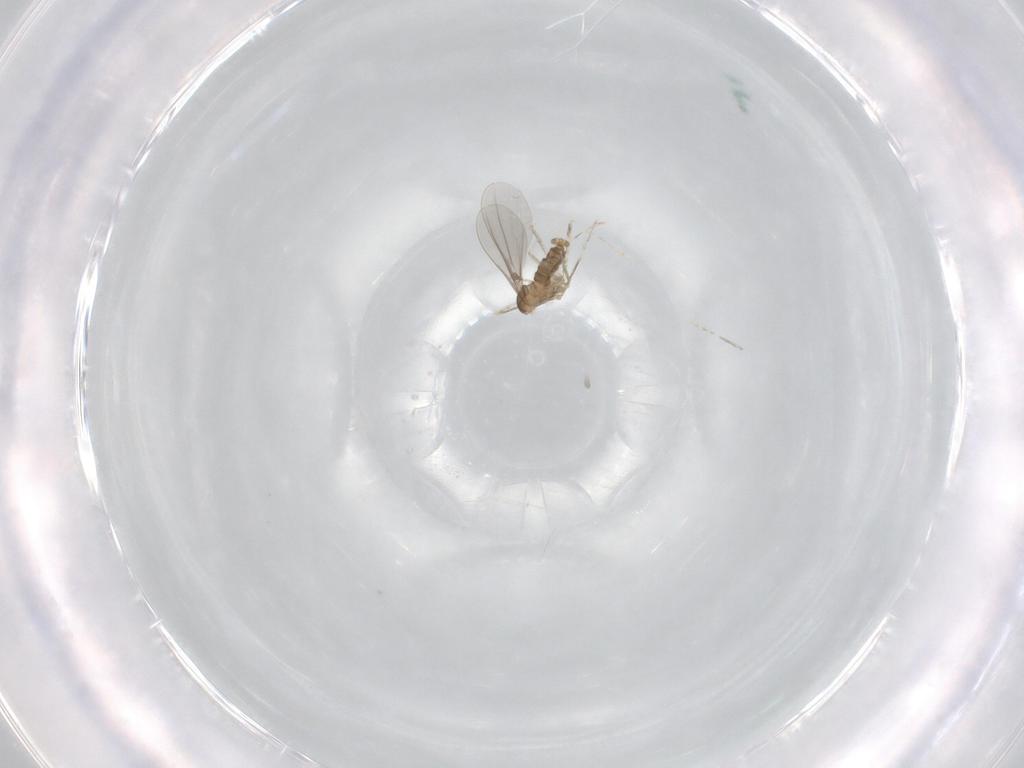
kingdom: Animalia
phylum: Arthropoda
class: Insecta
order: Diptera
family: Cecidomyiidae
